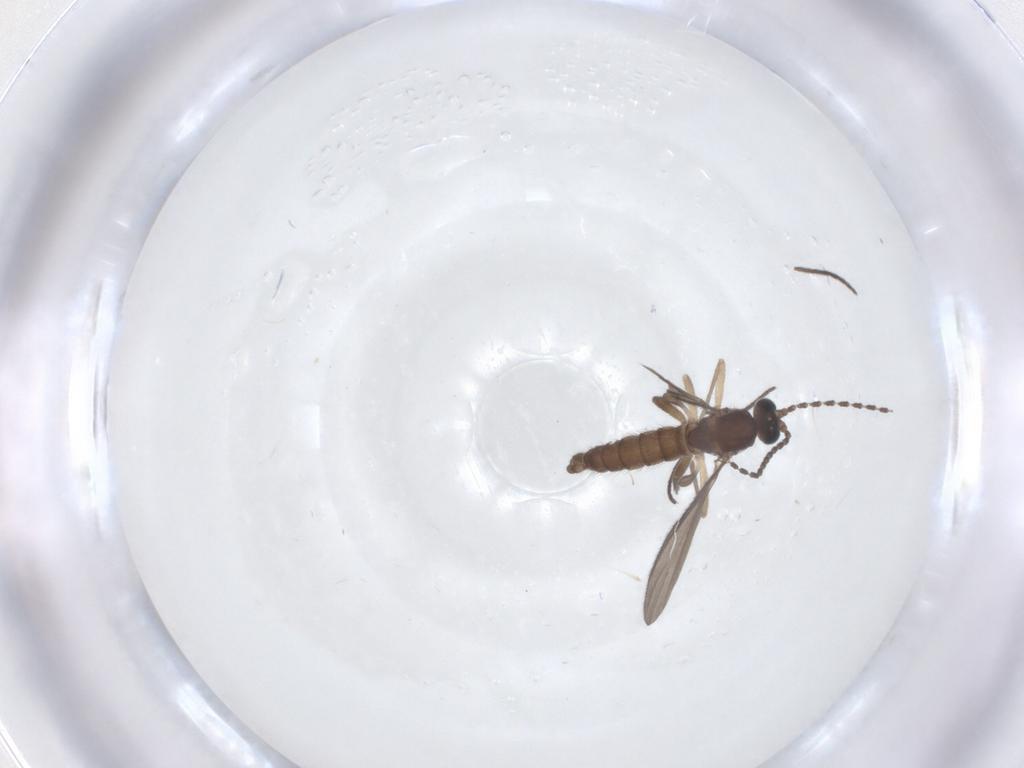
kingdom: Animalia
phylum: Arthropoda
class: Insecta
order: Diptera
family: Sciaridae
